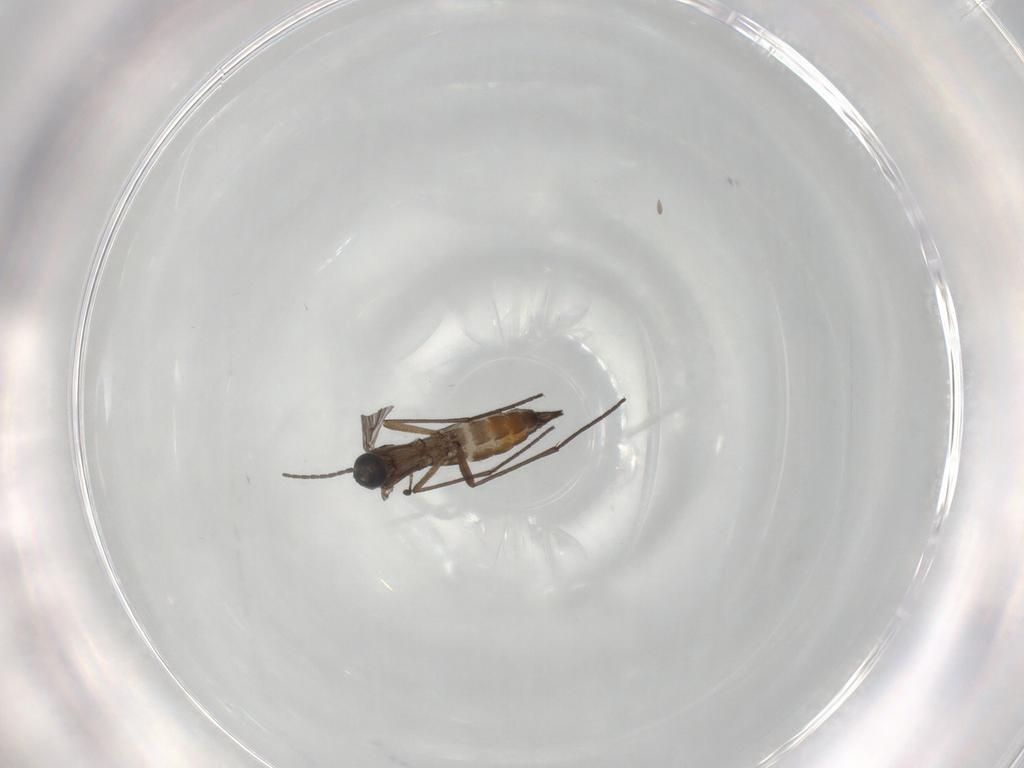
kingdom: Animalia
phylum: Arthropoda
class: Insecta
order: Diptera
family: Sciaridae
